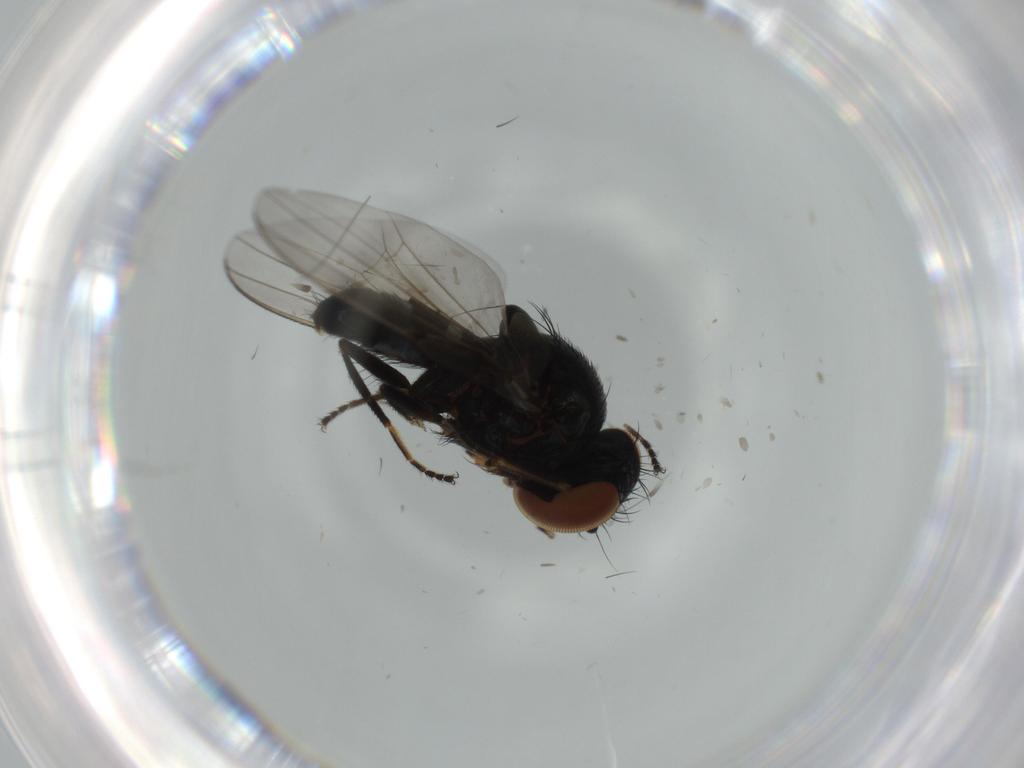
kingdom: Animalia
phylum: Arthropoda
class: Insecta
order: Diptera
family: Milichiidae
